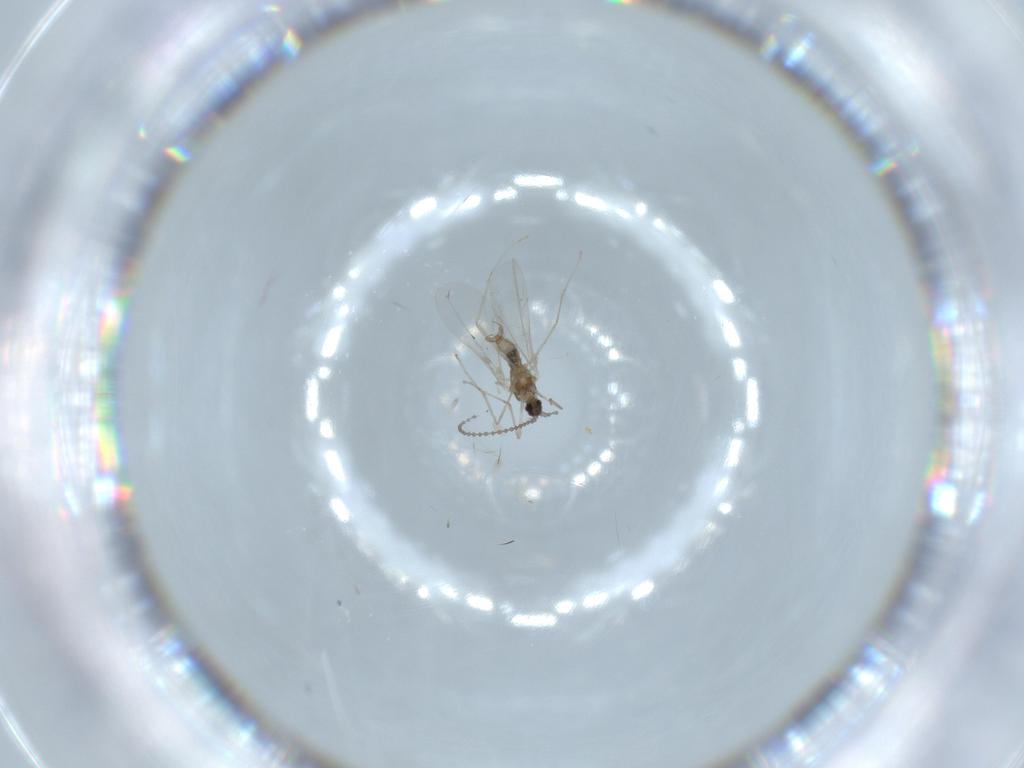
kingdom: Animalia
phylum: Arthropoda
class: Insecta
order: Diptera
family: Cecidomyiidae
